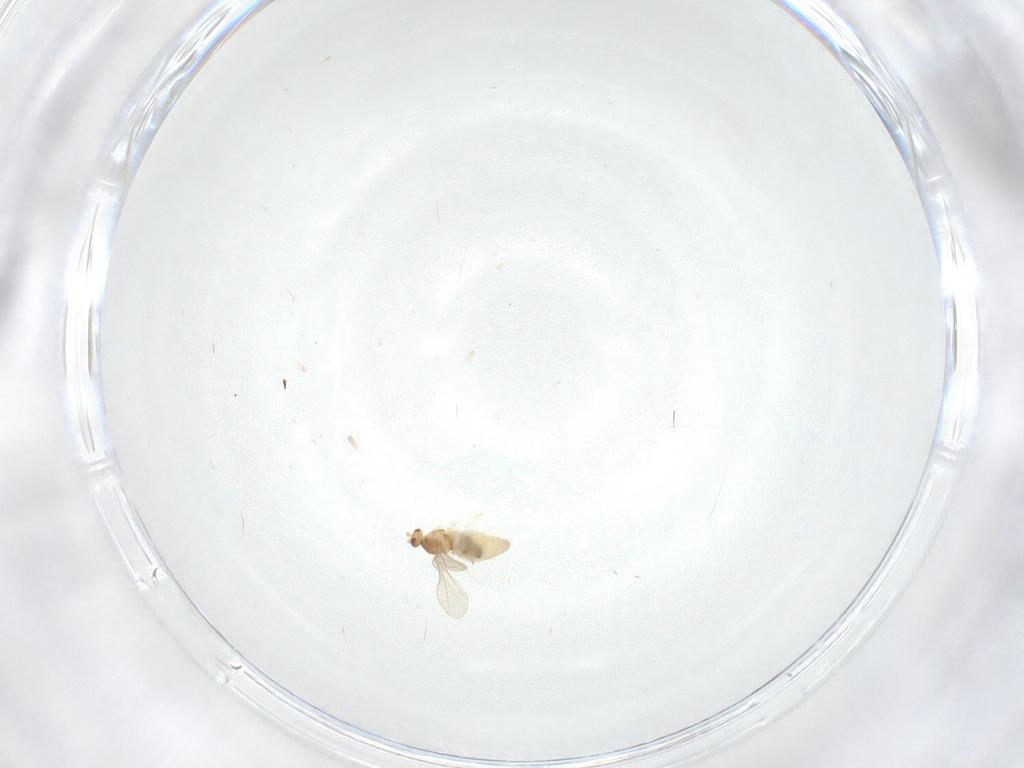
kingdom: Animalia
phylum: Arthropoda
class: Insecta
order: Diptera
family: Cecidomyiidae
